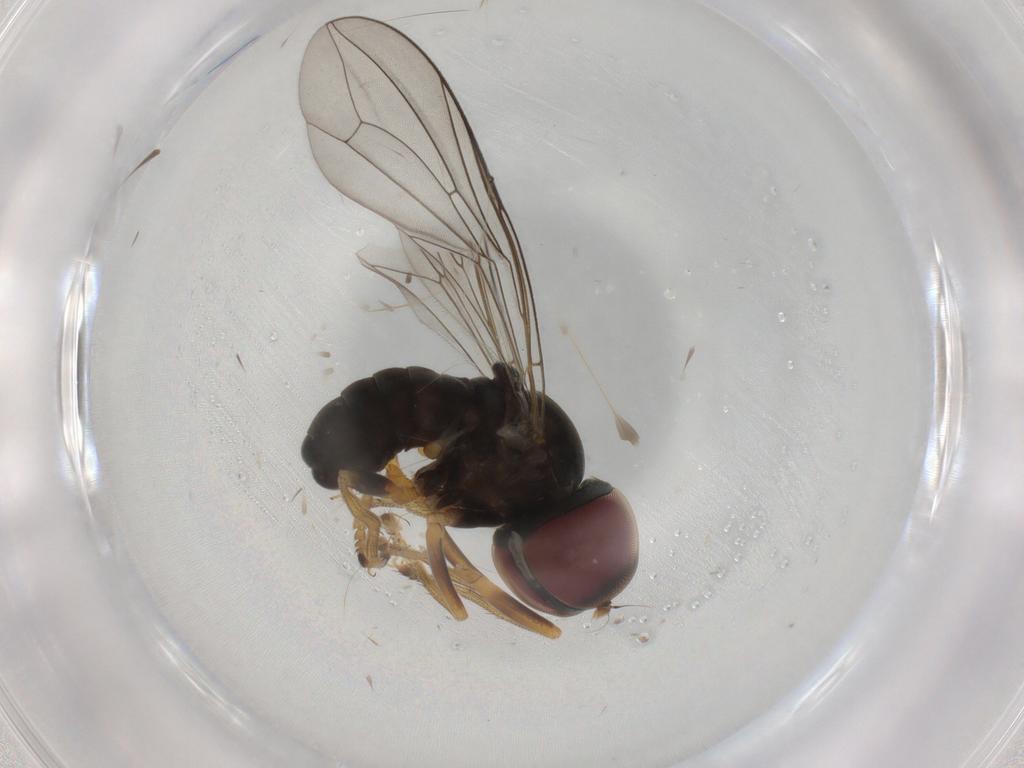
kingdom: Animalia
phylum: Arthropoda
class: Insecta
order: Diptera
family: Pipunculidae
